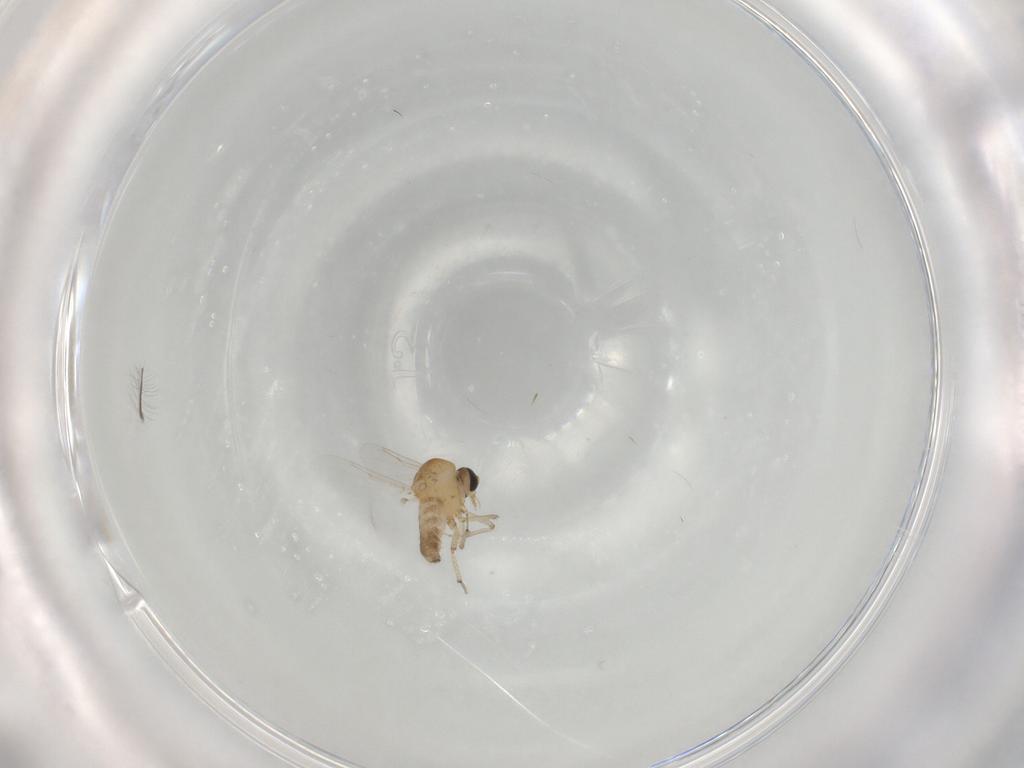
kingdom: Animalia
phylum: Arthropoda
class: Insecta
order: Diptera
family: Ceratopogonidae
